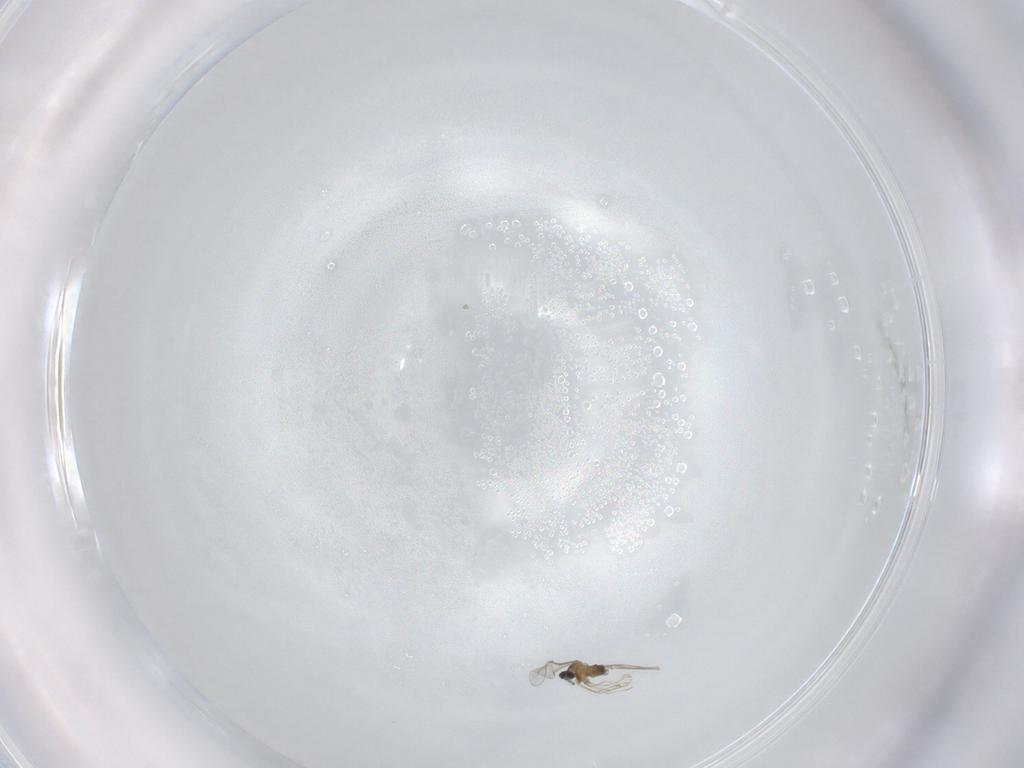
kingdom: Animalia
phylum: Arthropoda
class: Insecta
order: Diptera
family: Cecidomyiidae
